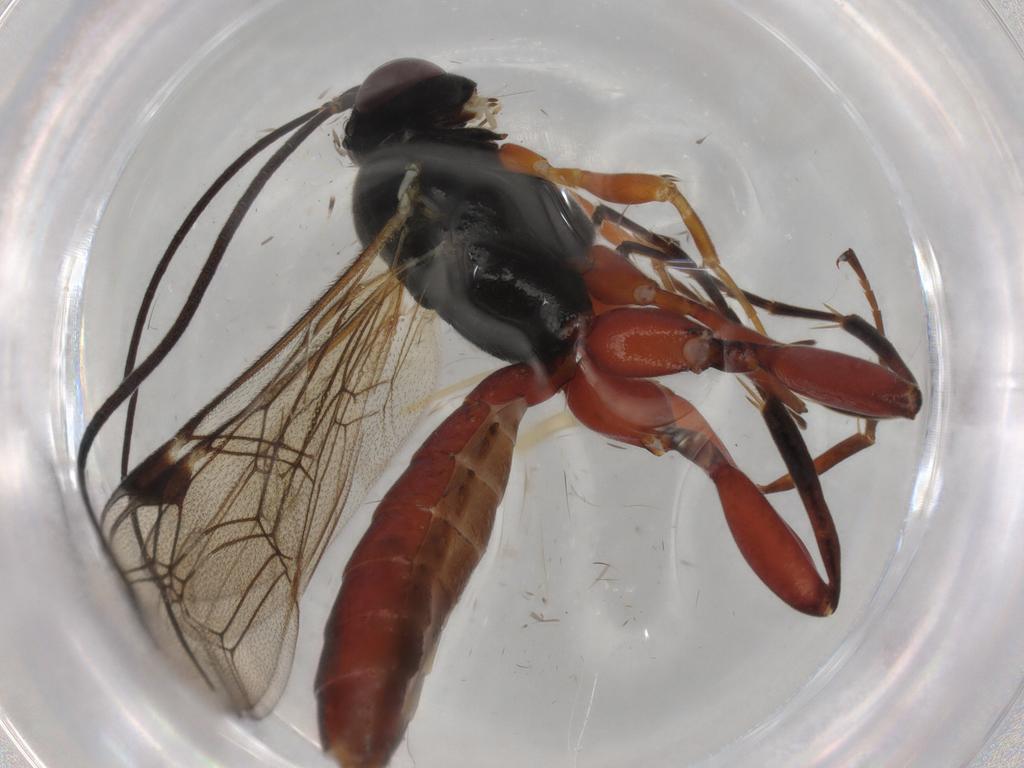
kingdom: Animalia
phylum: Arthropoda
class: Insecta
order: Hymenoptera
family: Ichneumonidae
